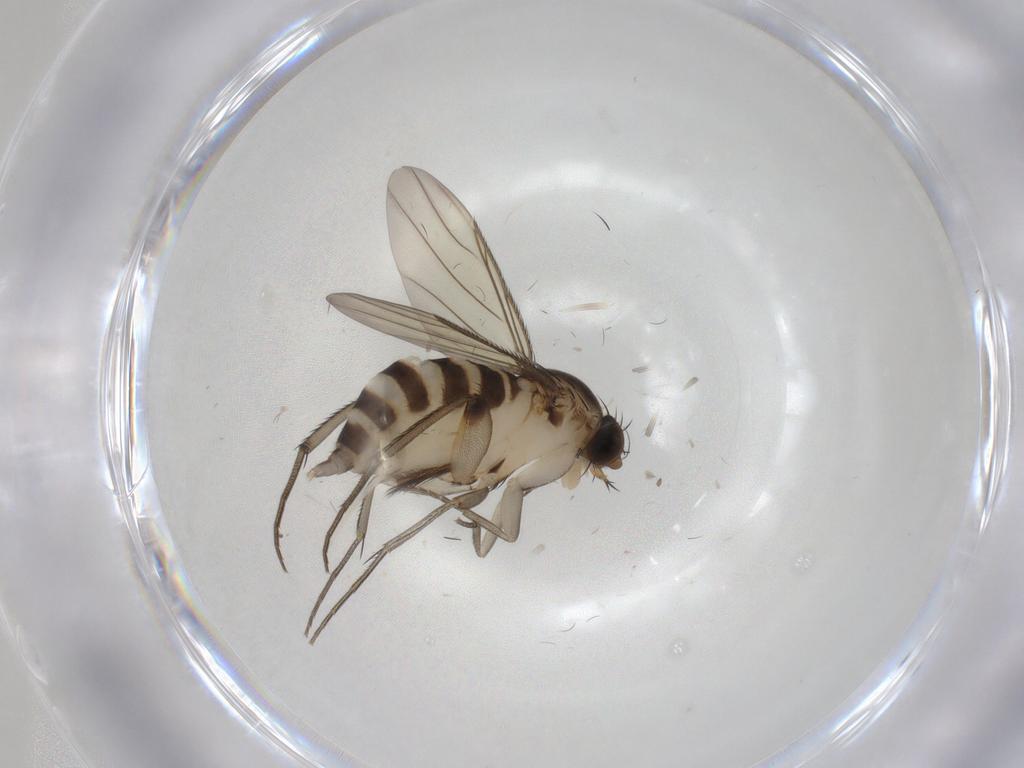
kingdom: Animalia
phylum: Arthropoda
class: Insecta
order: Diptera
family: Phoridae
